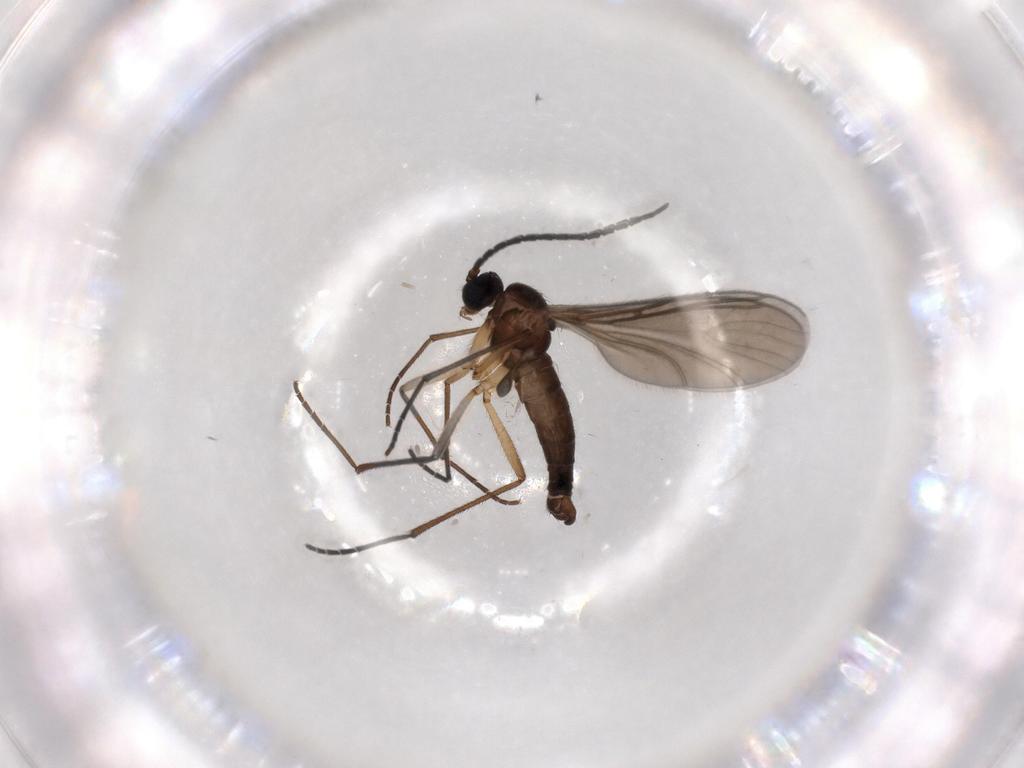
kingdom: Animalia
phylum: Arthropoda
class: Insecta
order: Diptera
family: Sciaridae
